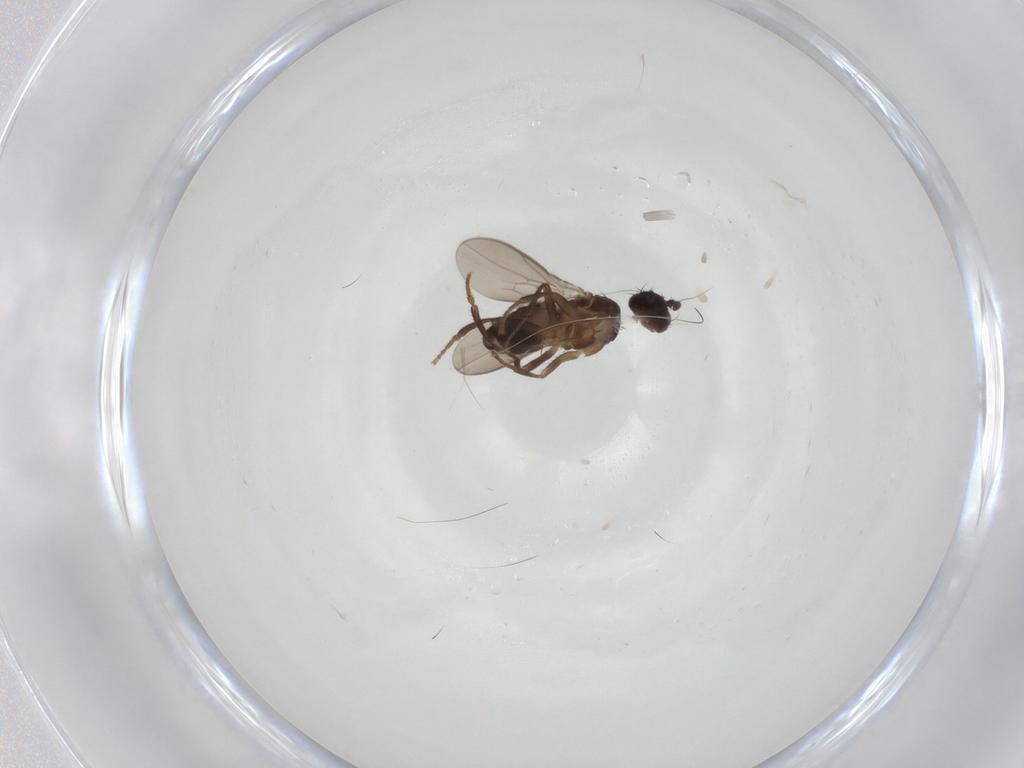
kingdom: Animalia
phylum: Arthropoda
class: Insecta
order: Diptera
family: Sphaeroceridae
